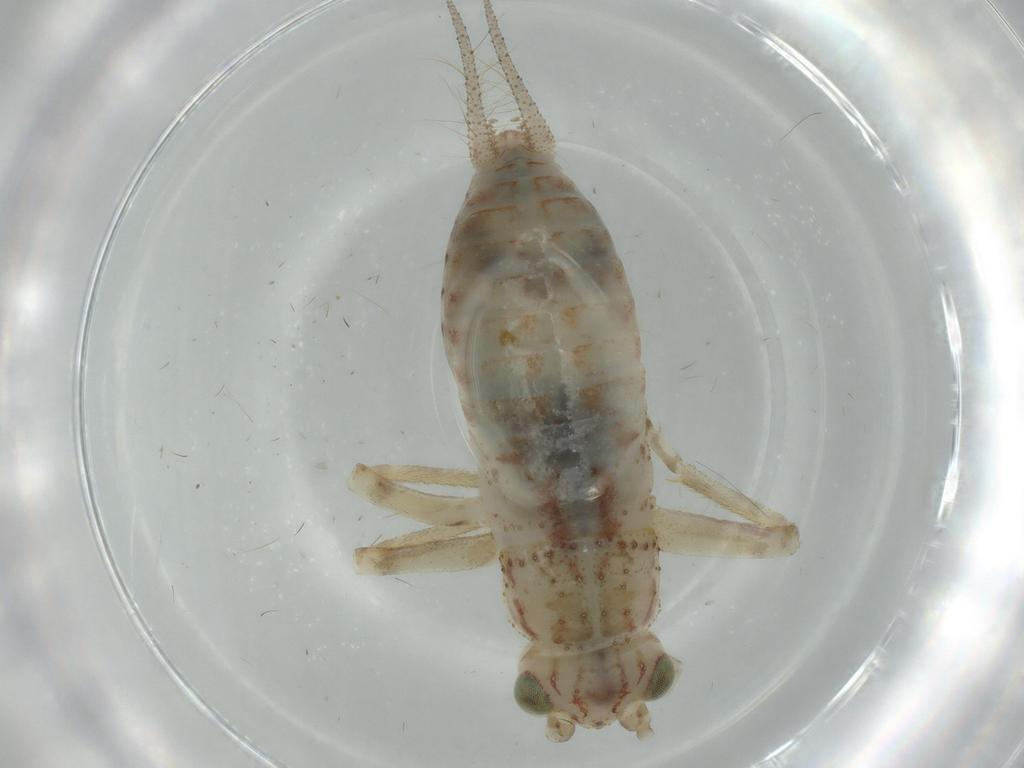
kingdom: Animalia
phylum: Arthropoda
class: Insecta
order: Orthoptera
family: Trigonidiidae
